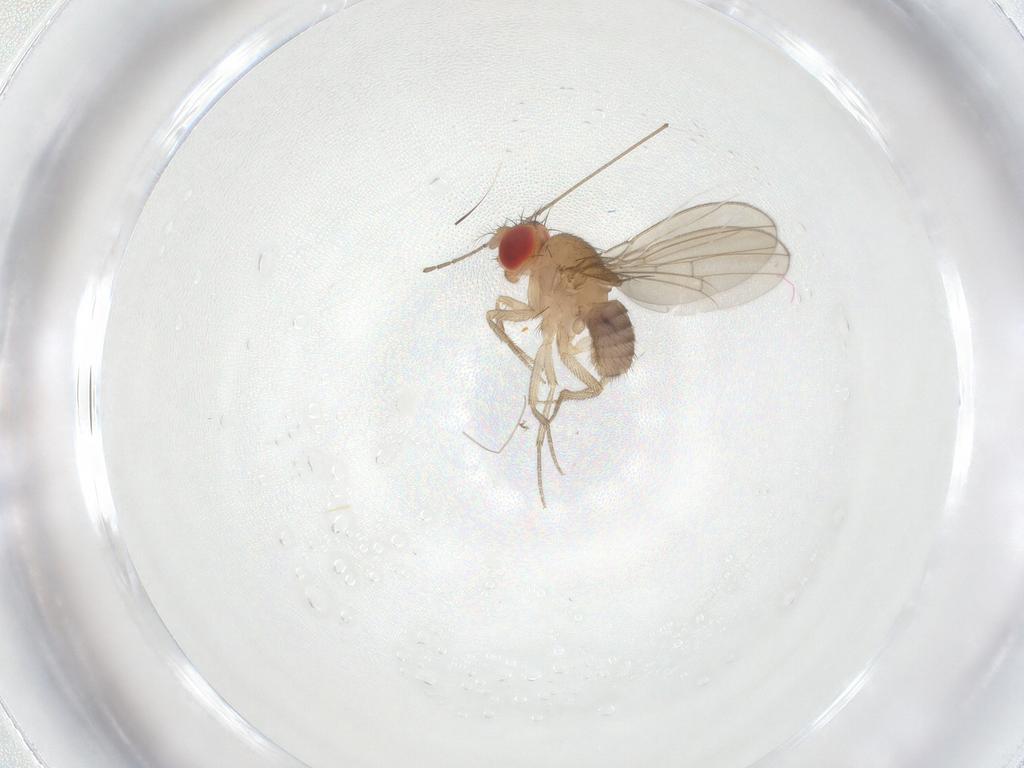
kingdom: Animalia
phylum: Arthropoda
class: Insecta
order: Diptera
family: Drosophilidae
